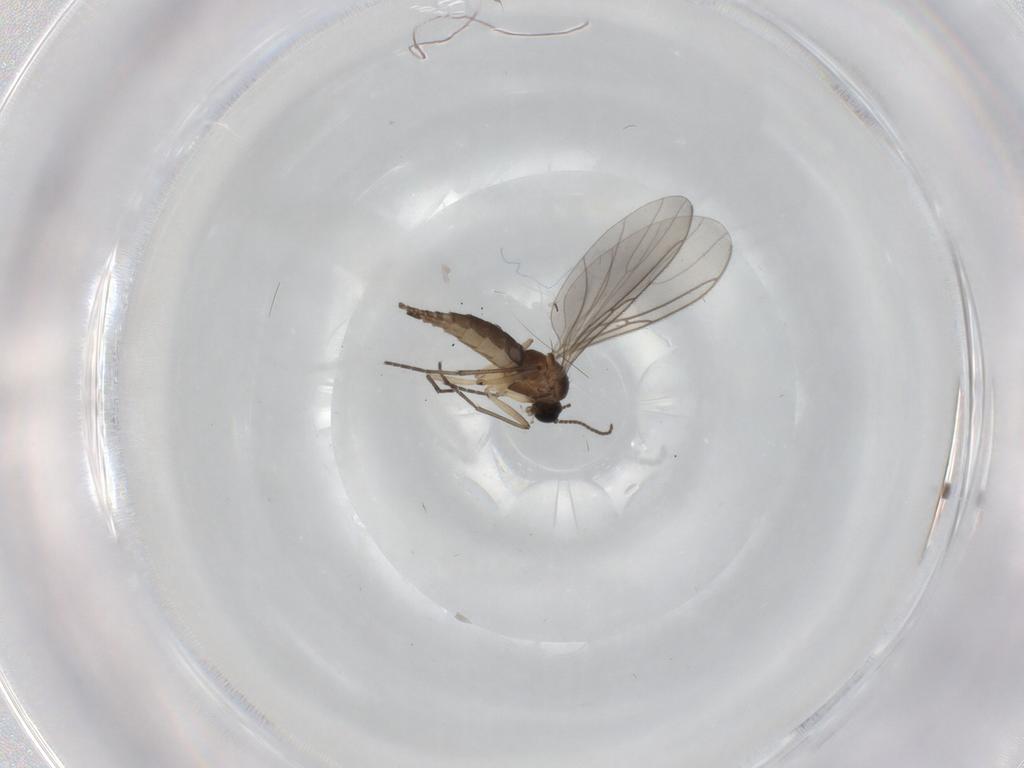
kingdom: Animalia
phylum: Arthropoda
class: Insecta
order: Diptera
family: Sciaridae
